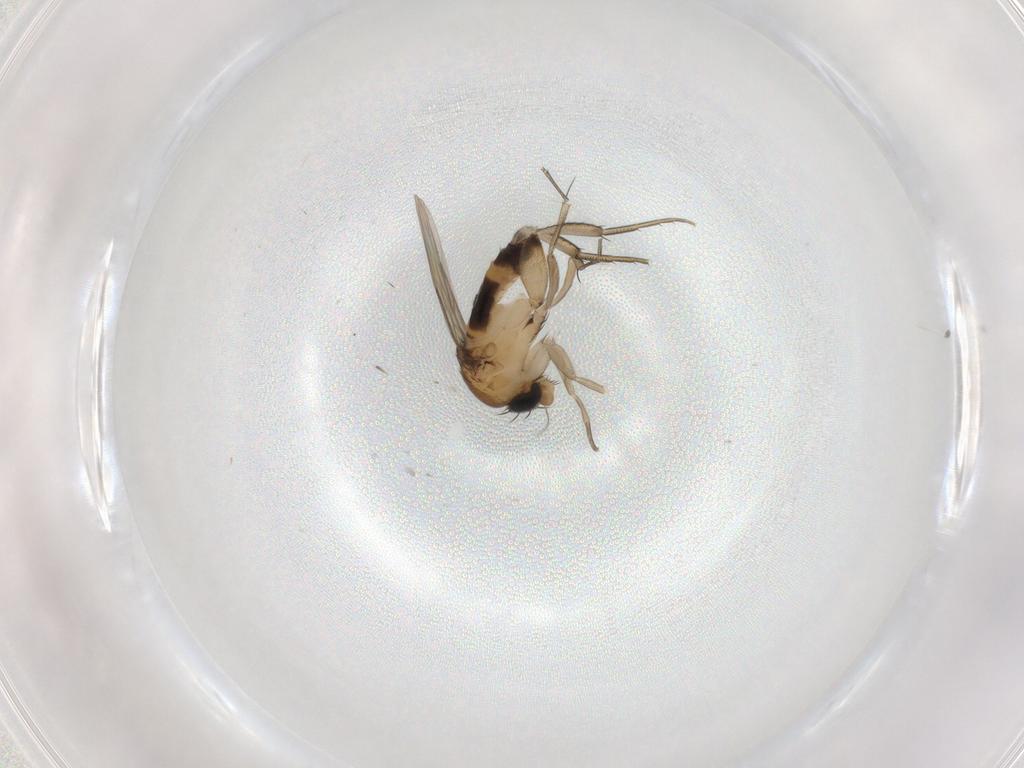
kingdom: Animalia
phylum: Arthropoda
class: Insecta
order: Diptera
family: Phoridae
